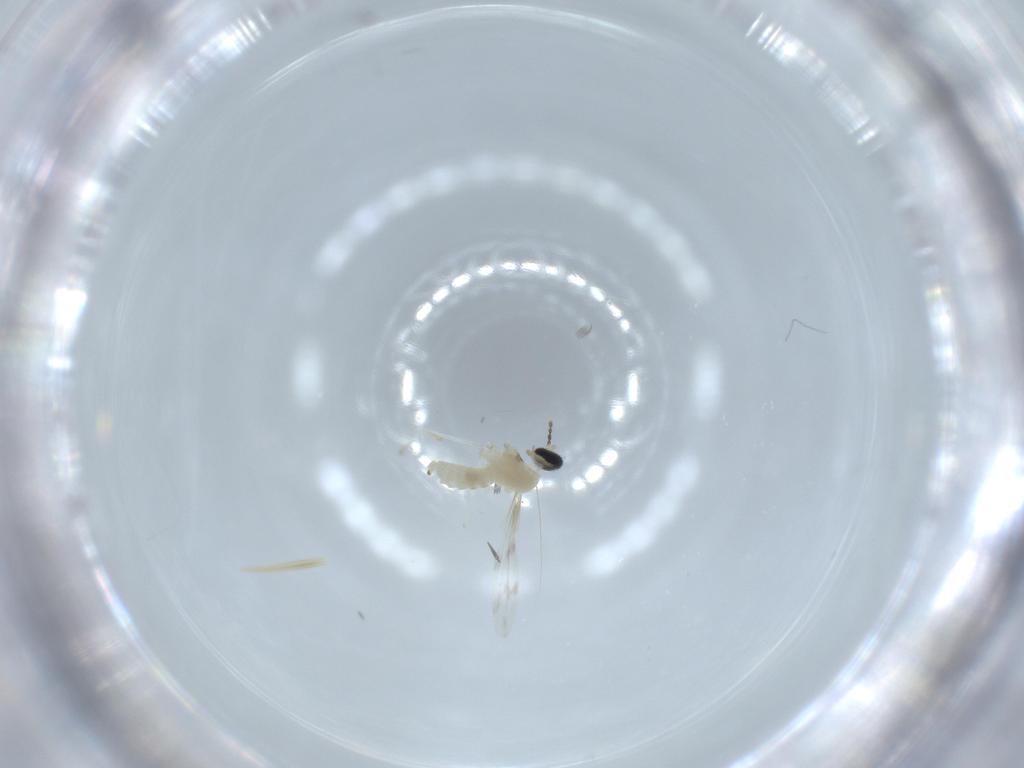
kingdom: Animalia
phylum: Arthropoda
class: Insecta
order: Diptera
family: Cecidomyiidae
